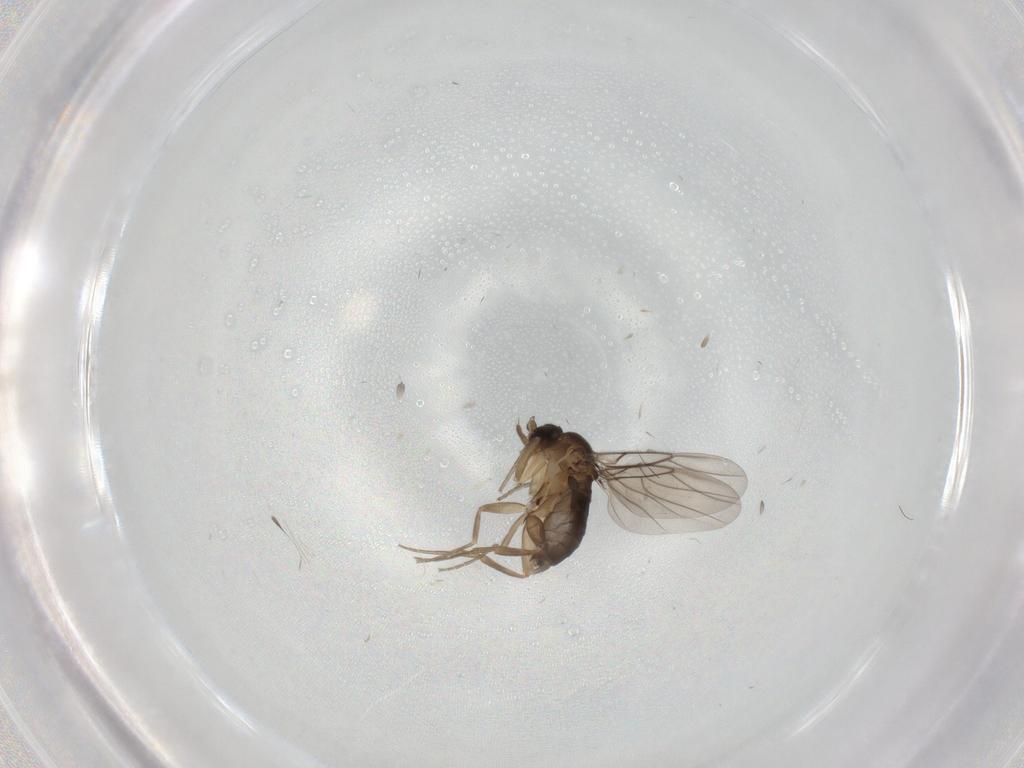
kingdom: Animalia
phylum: Arthropoda
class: Insecta
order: Diptera
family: Phoridae
